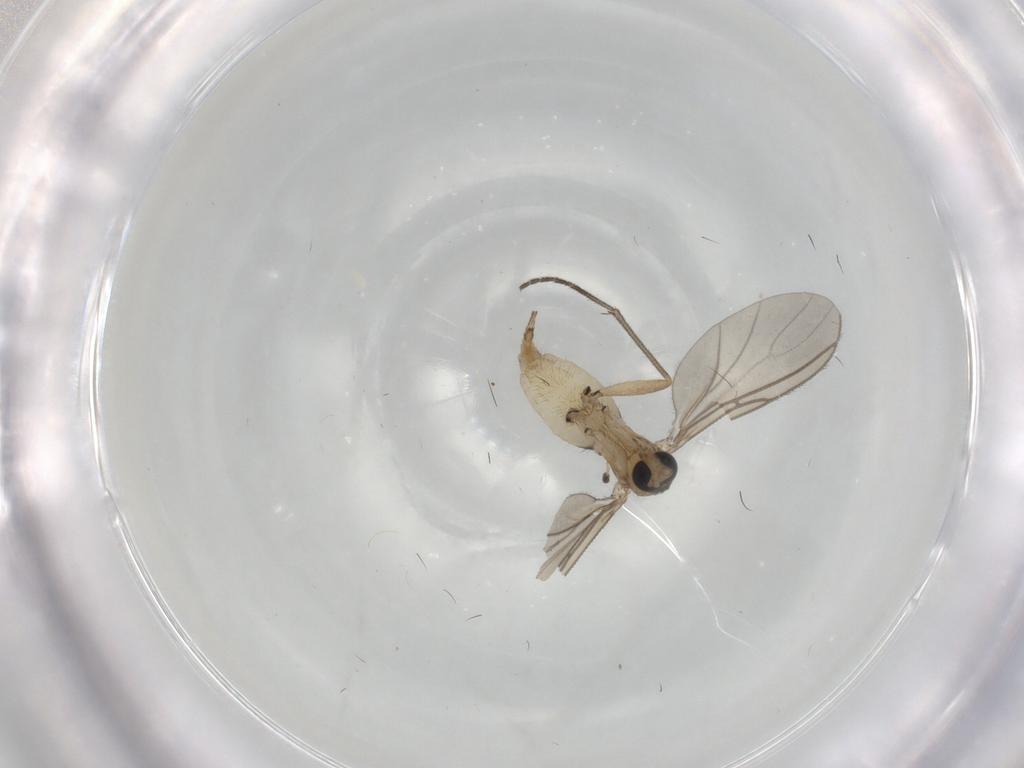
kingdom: Animalia
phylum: Arthropoda
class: Insecta
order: Diptera
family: Sciaridae
